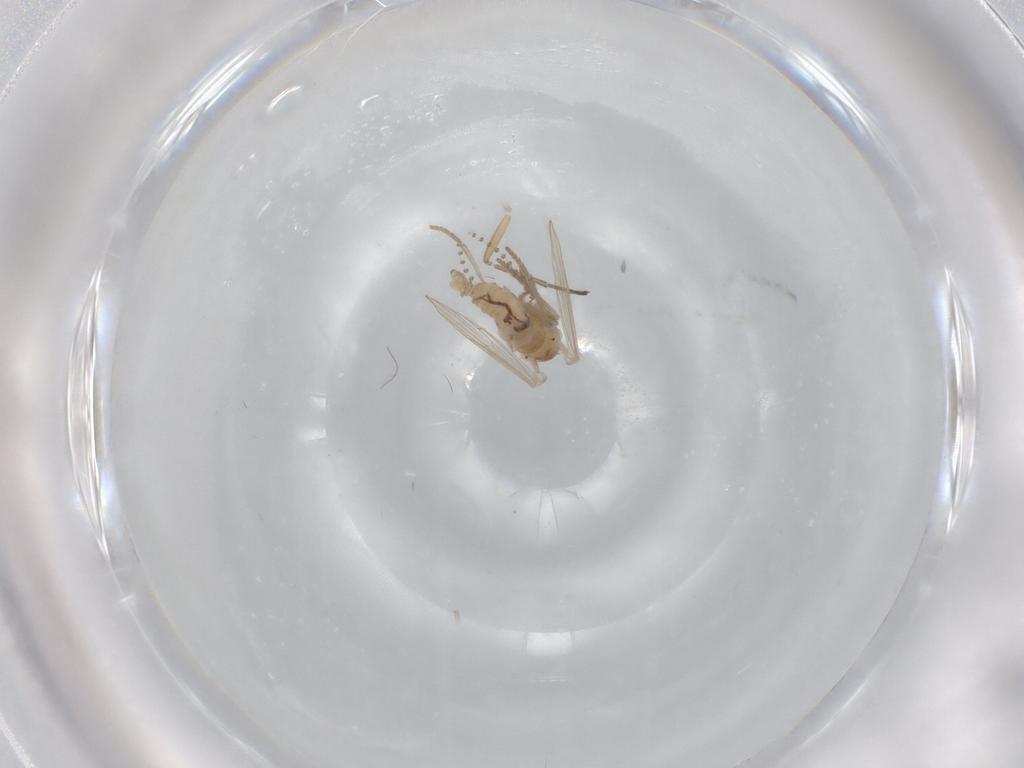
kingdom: Animalia
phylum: Arthropoda
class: Insecta
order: Diptera
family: Psychodidae
